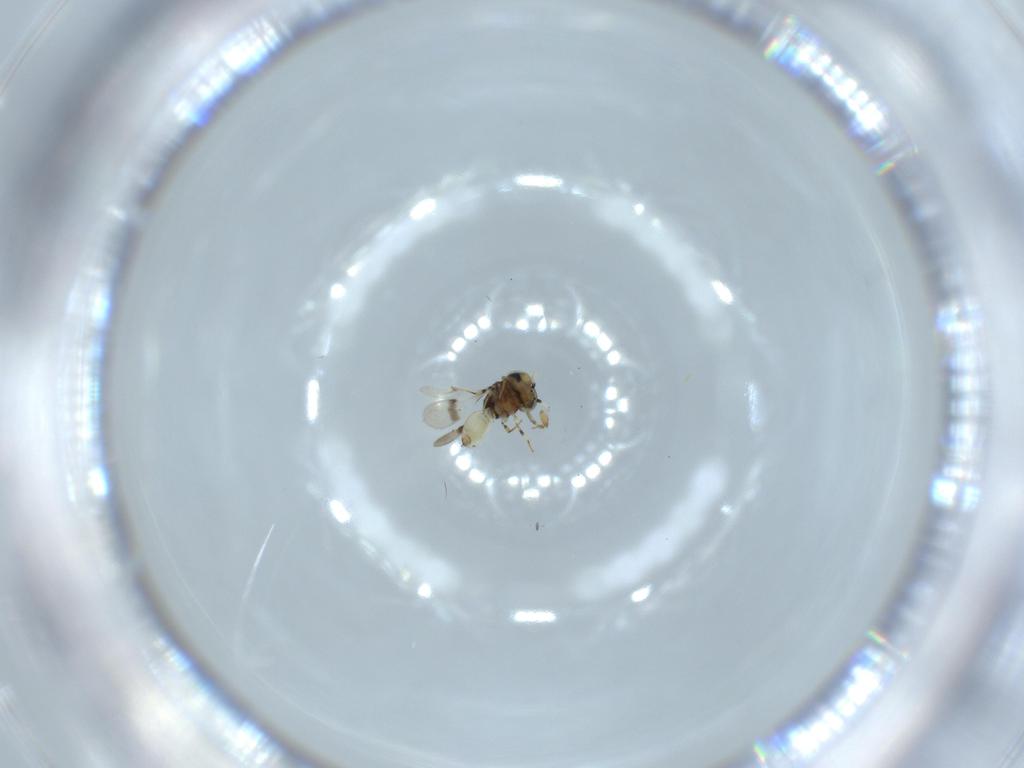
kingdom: Animalia
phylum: Arthropoda
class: Insecta
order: Hymenoptera
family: Scelionidae
